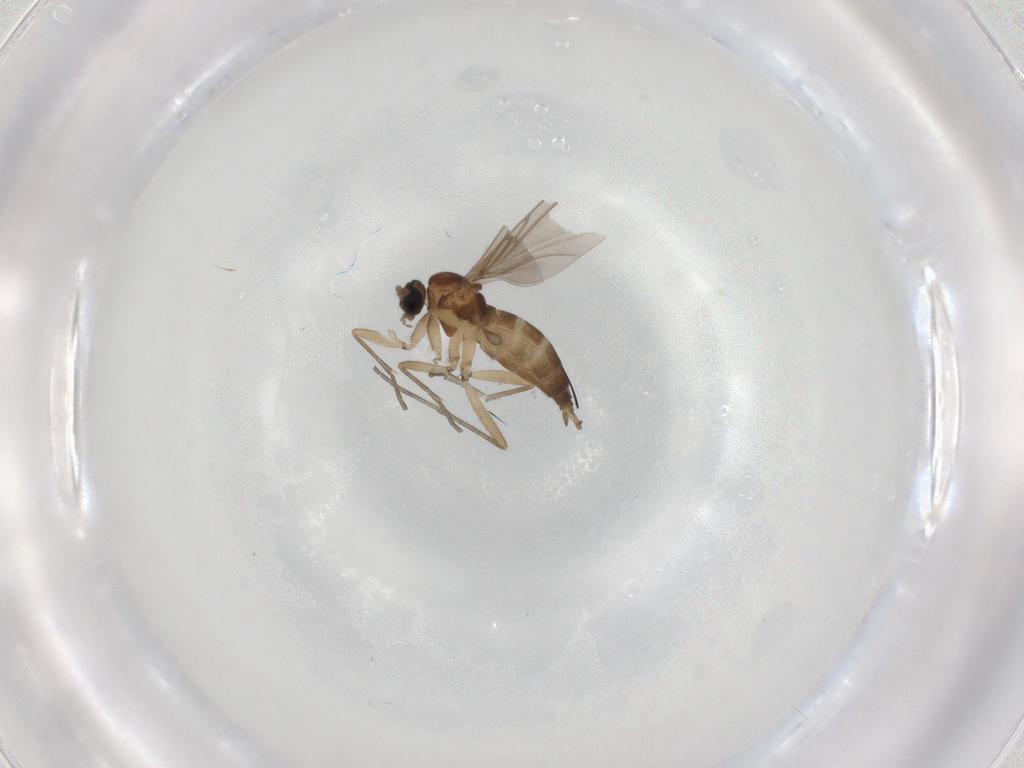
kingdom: Animalia
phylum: Arthropoda
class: Insecta
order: Diptera
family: Sciaridae
